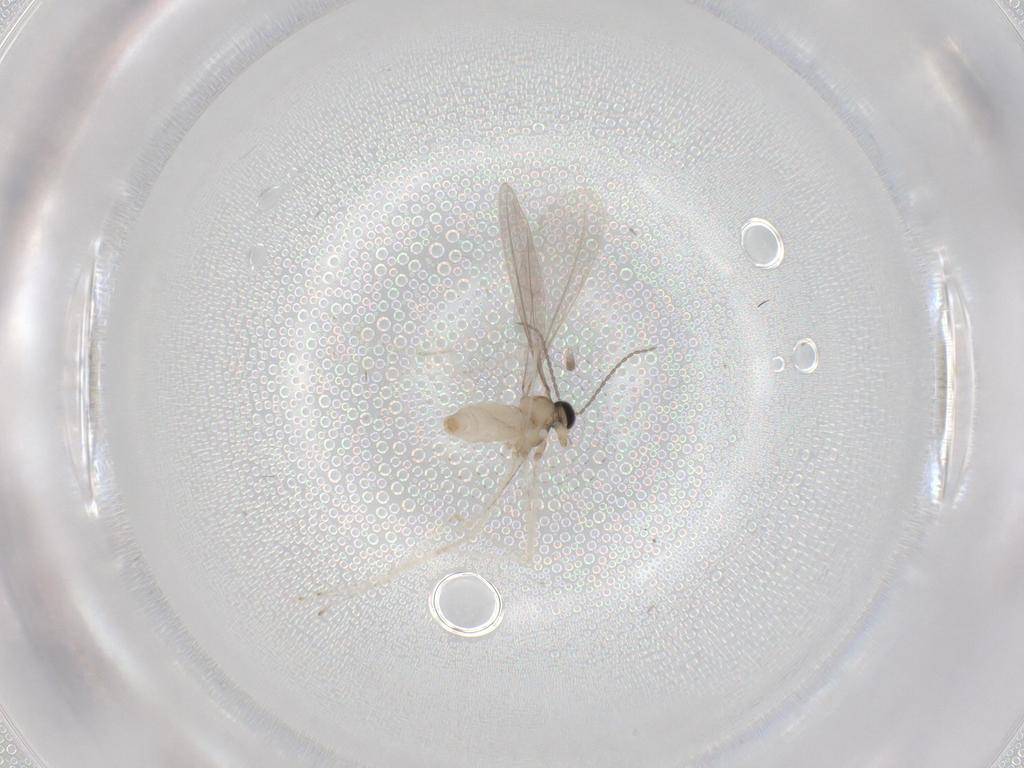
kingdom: Animalia
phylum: Arthropoda
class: Insecta
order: Diptera
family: Cecidomyiidae
